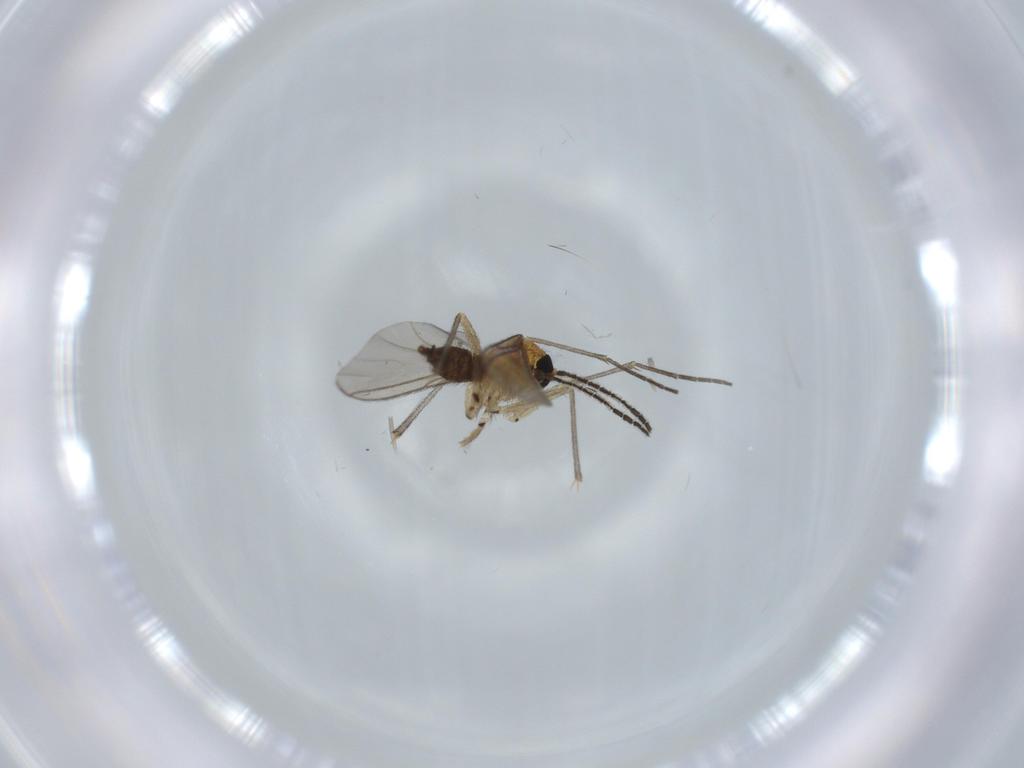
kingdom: Animalia
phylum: Arthropoda
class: Insecta
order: Diptera
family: Sciaridae
